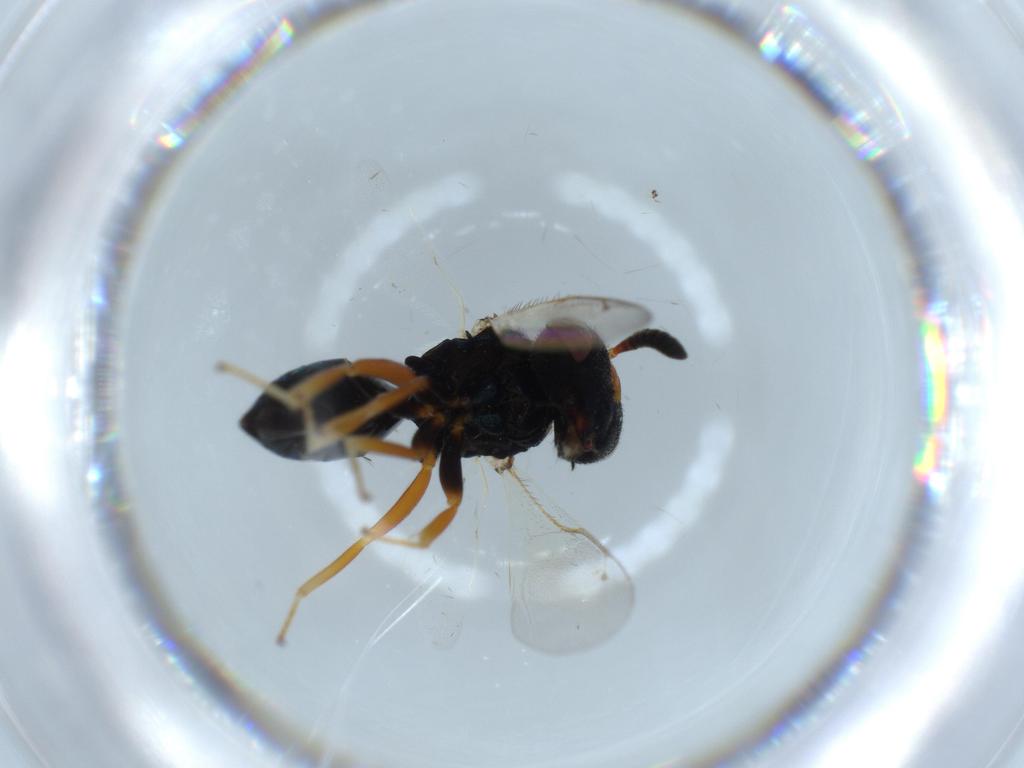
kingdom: Animalia
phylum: Arthropoda
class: Insecta
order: Hymenoptera
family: Agaonidae
